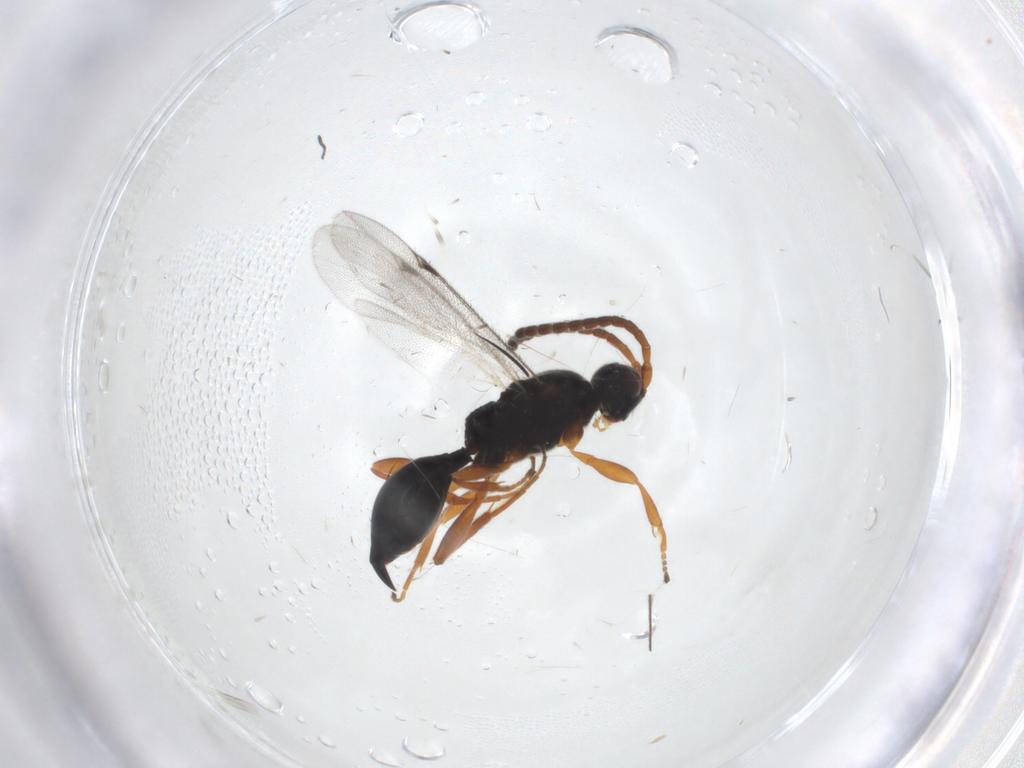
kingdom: Animalia
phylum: Arthropoda
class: Insecta
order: Hymenoptera
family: Proctotrupidae
